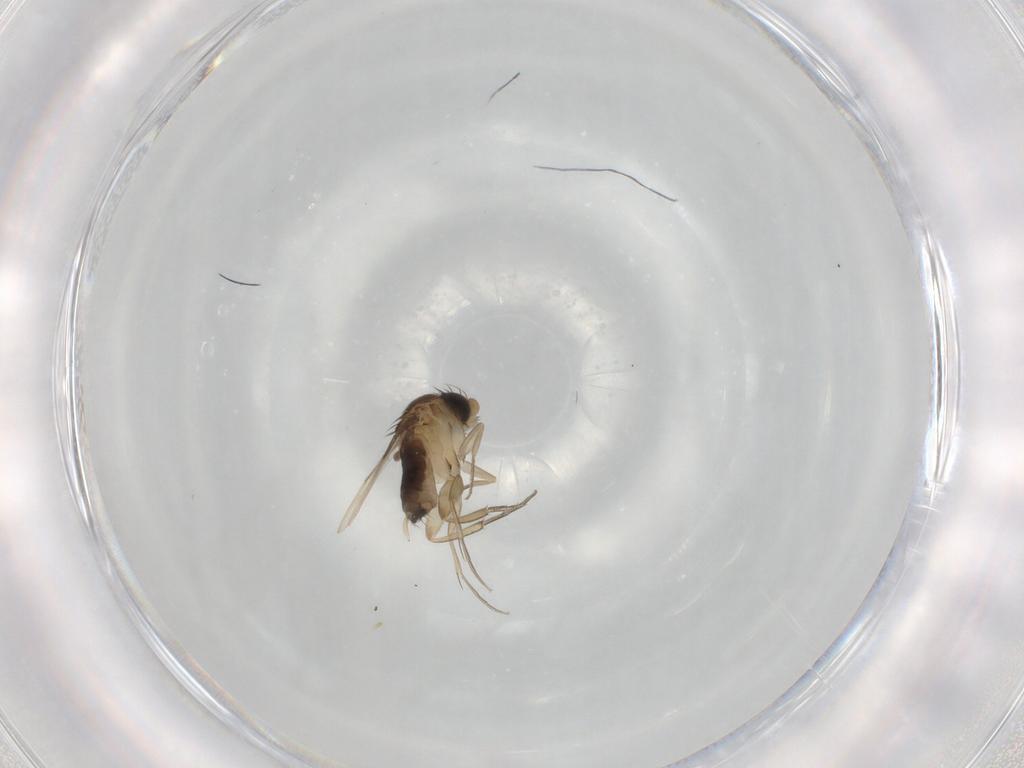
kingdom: Animalia
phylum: Arthropoda
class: Insecta
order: Diptera
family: Phoridae
